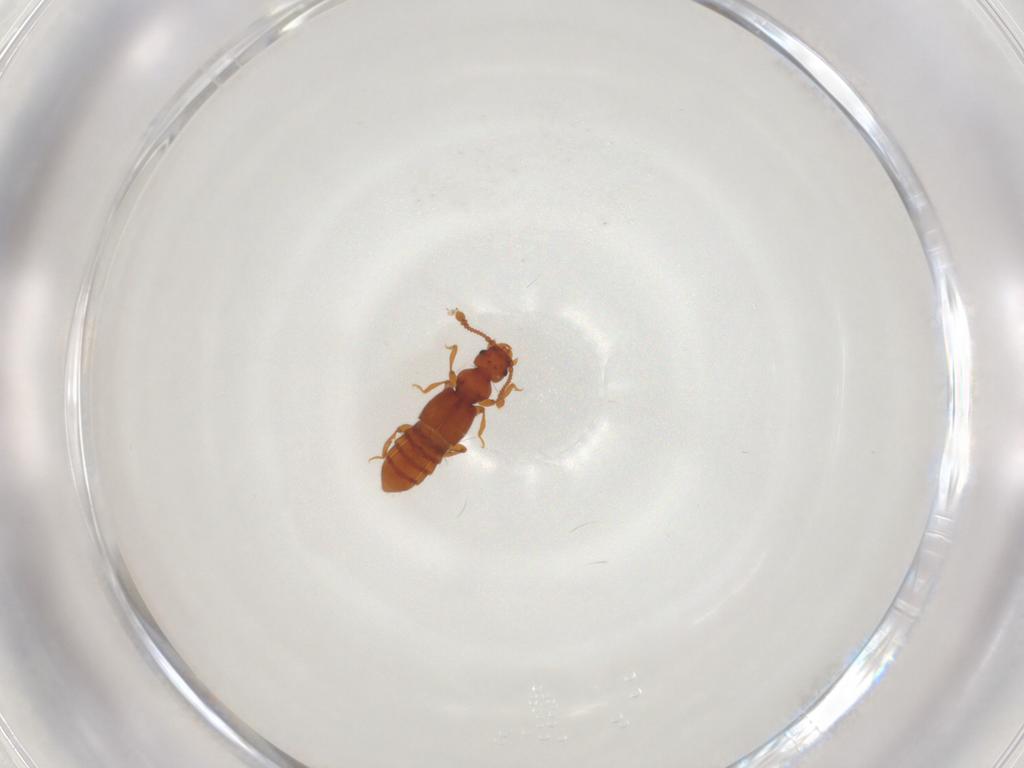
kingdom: Animalia
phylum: Arthropoda
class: Insecta
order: Coleoptera
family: Staphylinidae
